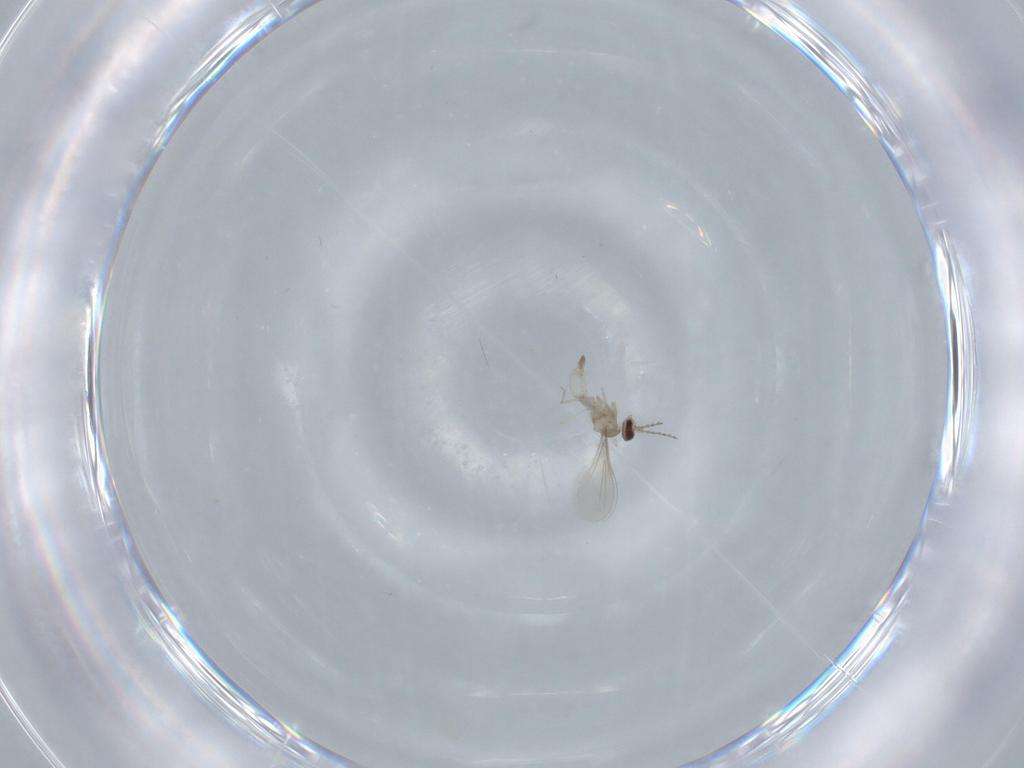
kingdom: Animalia
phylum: Arthropoda
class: Insecta
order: Diptera
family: Cecidomyiidae
